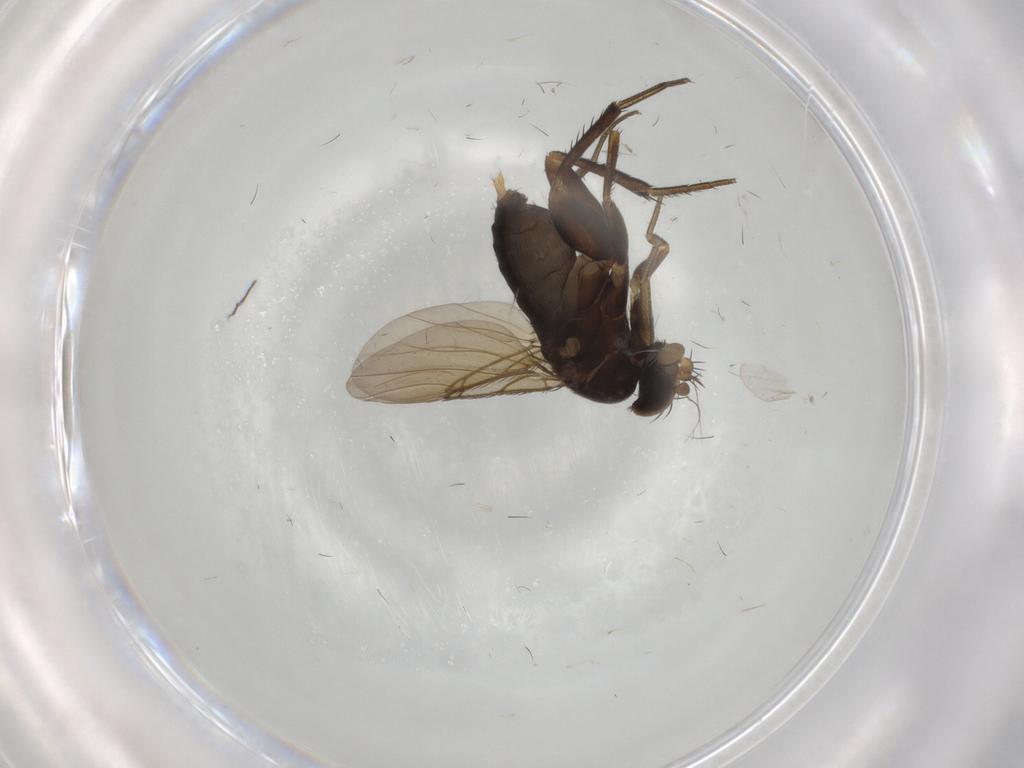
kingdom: Animalia
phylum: Arthropoda
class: Insecta
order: Diptera
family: Phoridae
